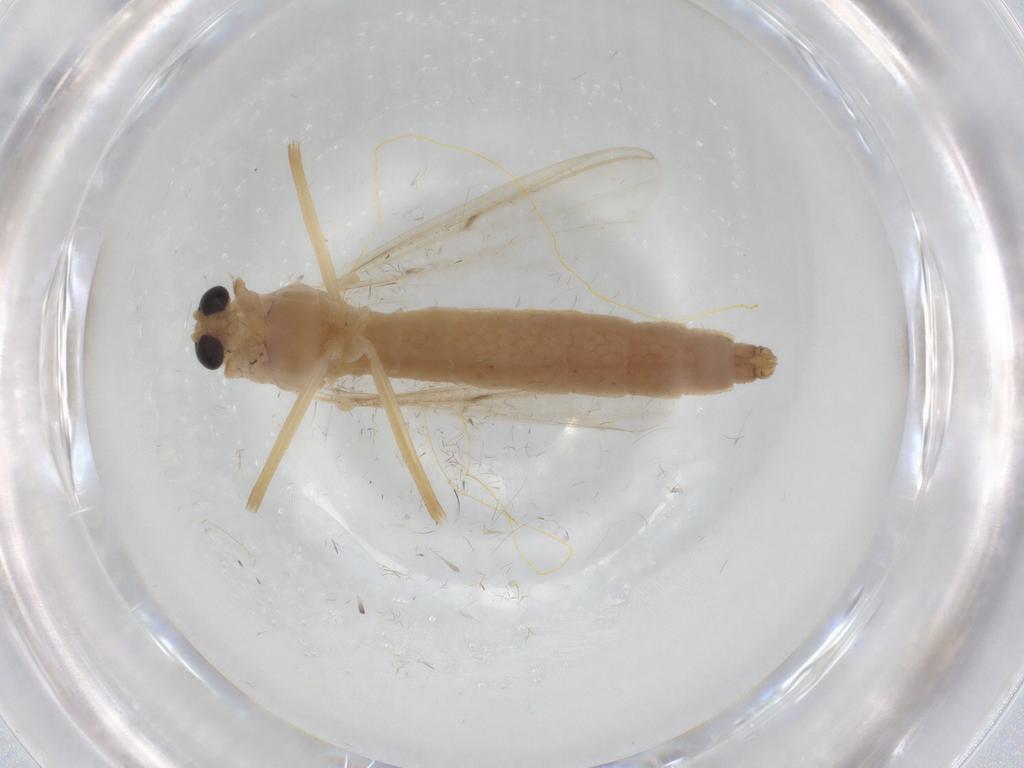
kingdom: Animalia
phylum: Arthropoda
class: Insecta
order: Diptera
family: Chironomidae
